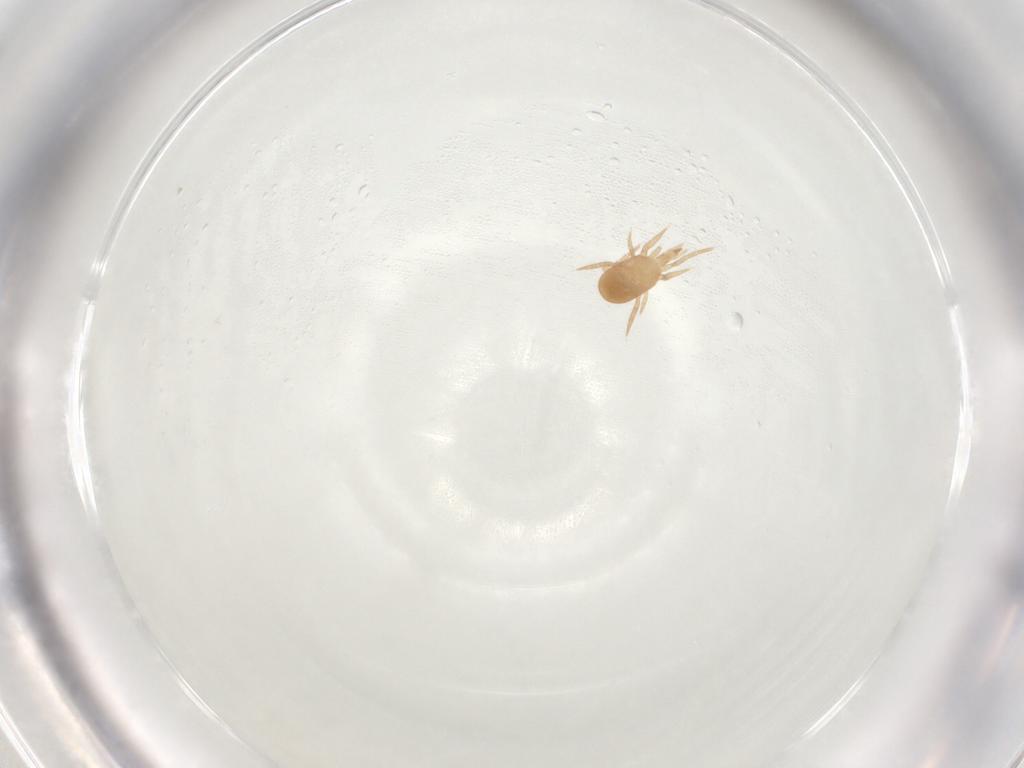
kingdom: Animalia
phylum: Arthropoda
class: Arachnida
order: Mesostigmata
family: Laelapidae
